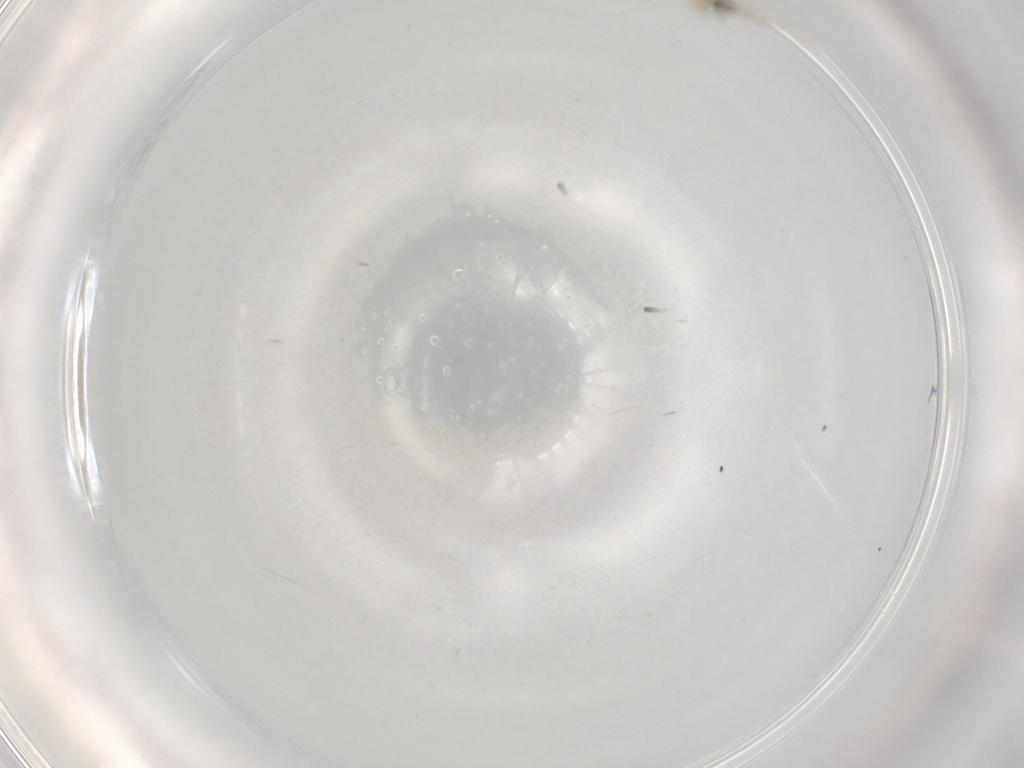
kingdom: Animalia
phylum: Arthropoda
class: Insecta
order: Diptera
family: Cecidomyiidae
